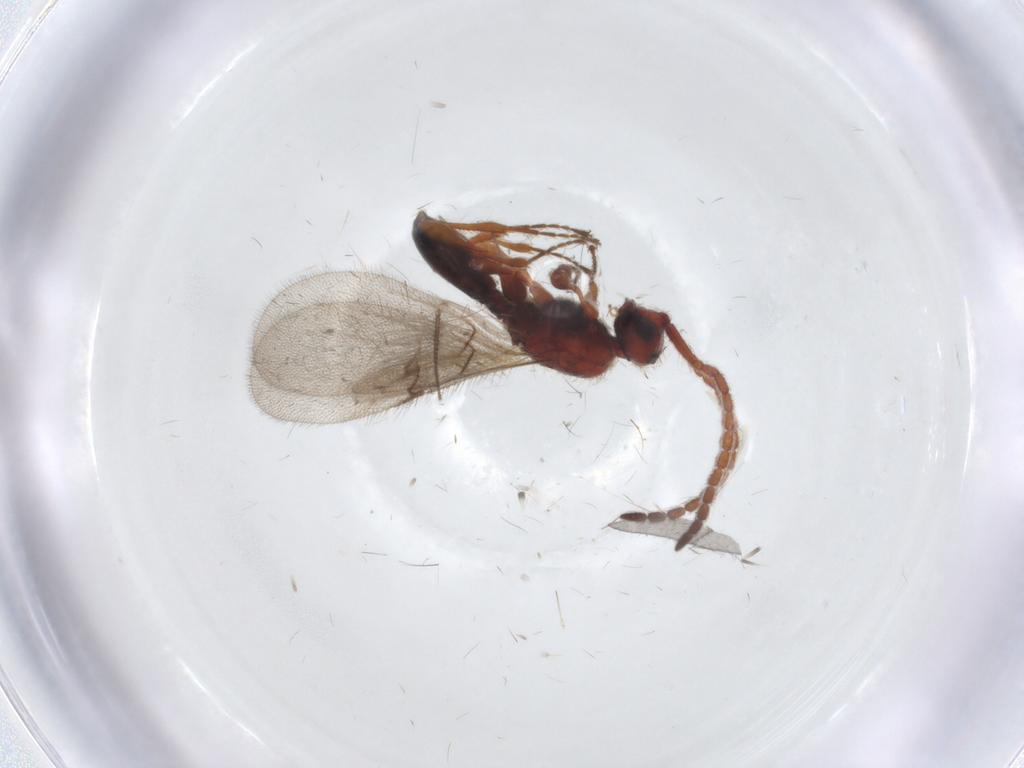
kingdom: Animalia
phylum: Arthropoda
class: Insecta
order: Hymenoptera
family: Diapriidae
